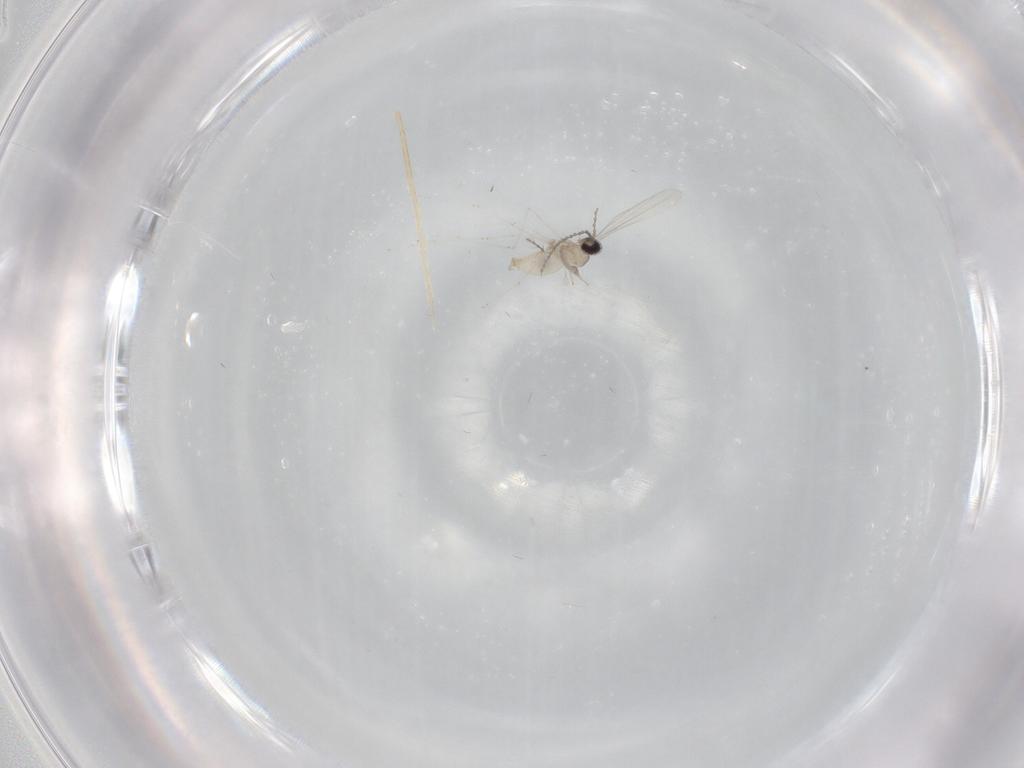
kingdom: Animalia
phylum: Arthropoda
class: Insecta
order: Diptera
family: Cecidomyiidae
